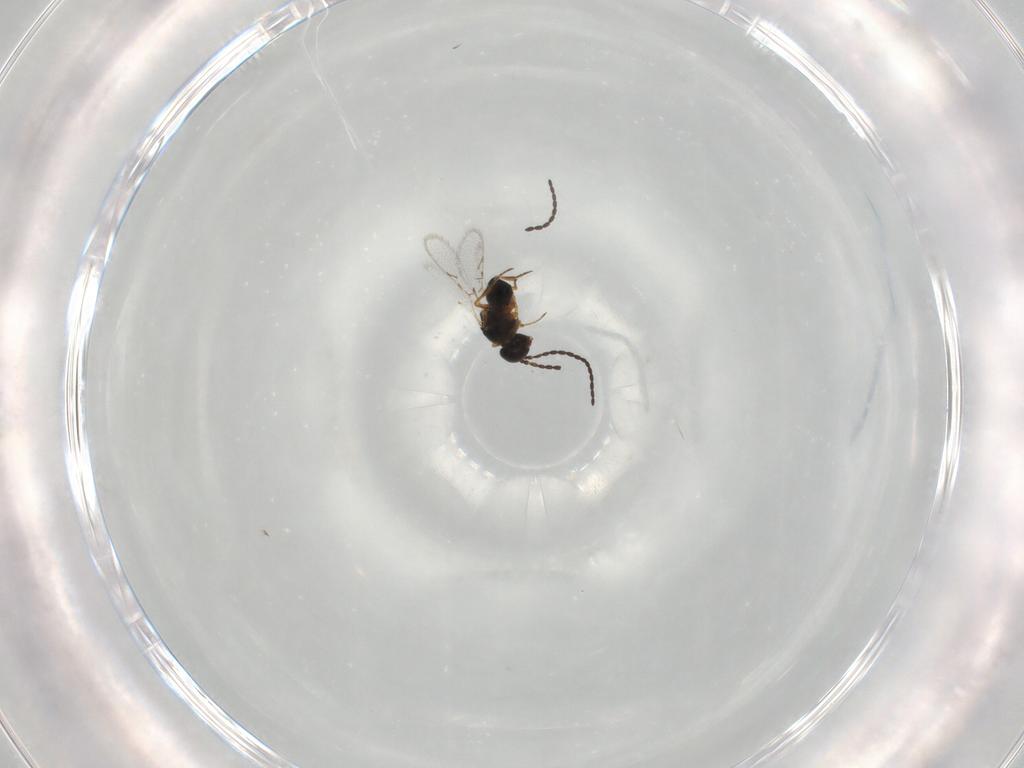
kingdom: Animalia
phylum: Arthropoda
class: Insecta
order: Hymenoptera
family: Figitidae
